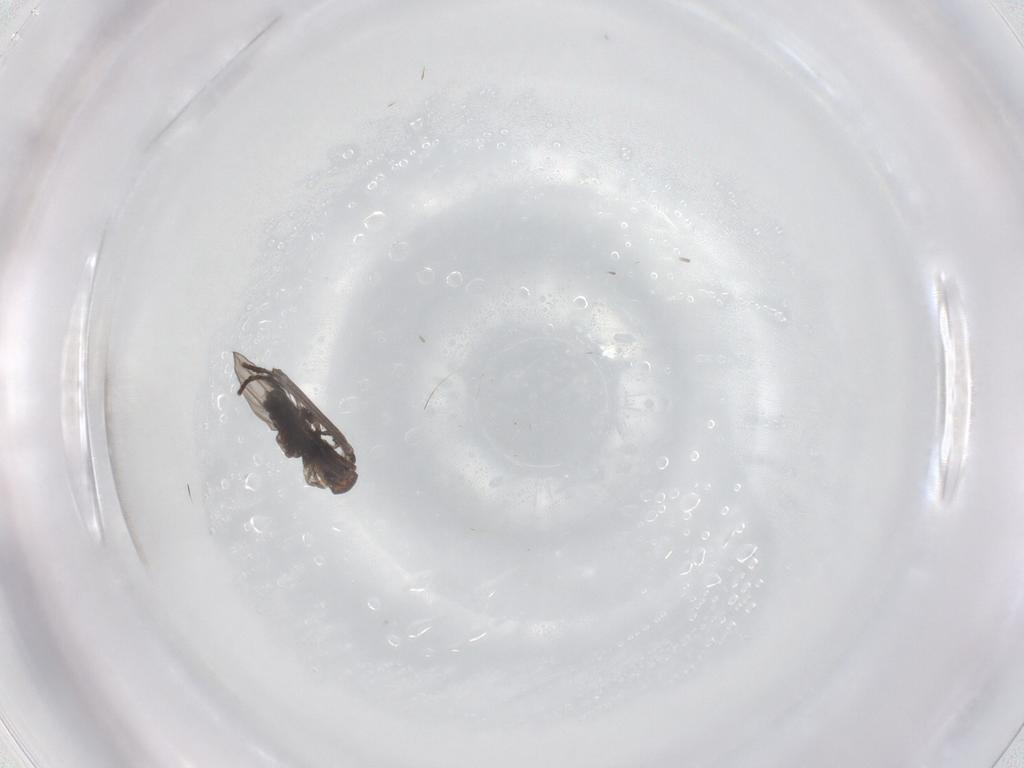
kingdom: Animalia
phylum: Arthropoda
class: Insecta
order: Diptera
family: Psychodidae
